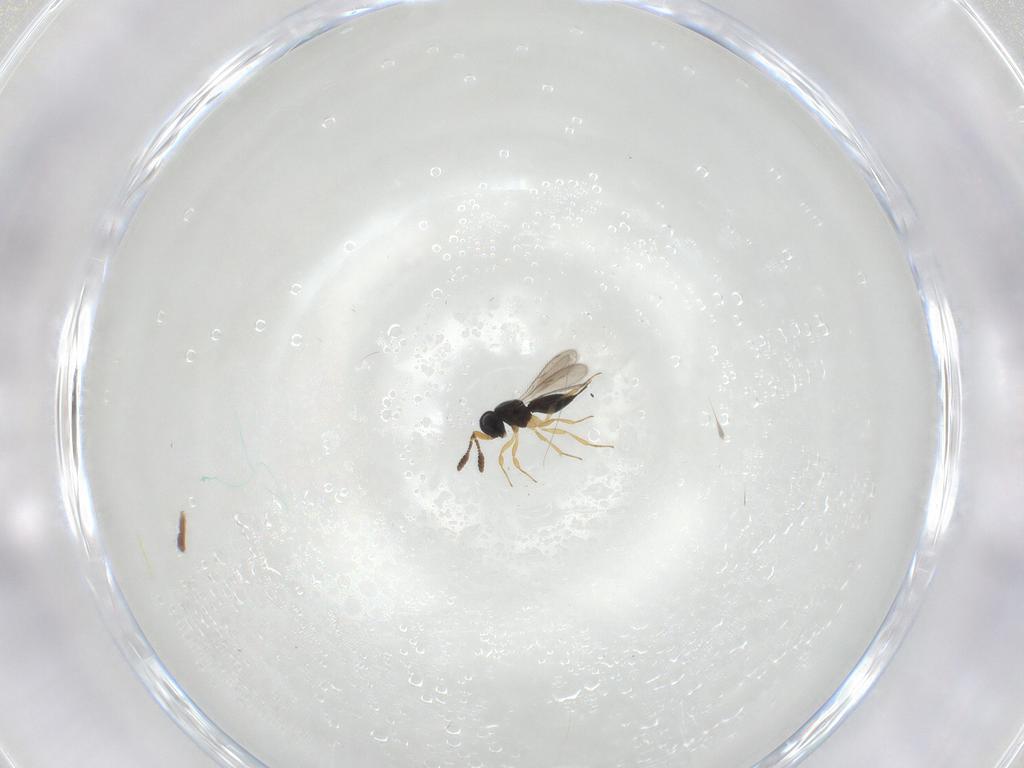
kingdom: Animalia
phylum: Arthropoda
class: Insecta
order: Hymenoptera
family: Scelionidae
